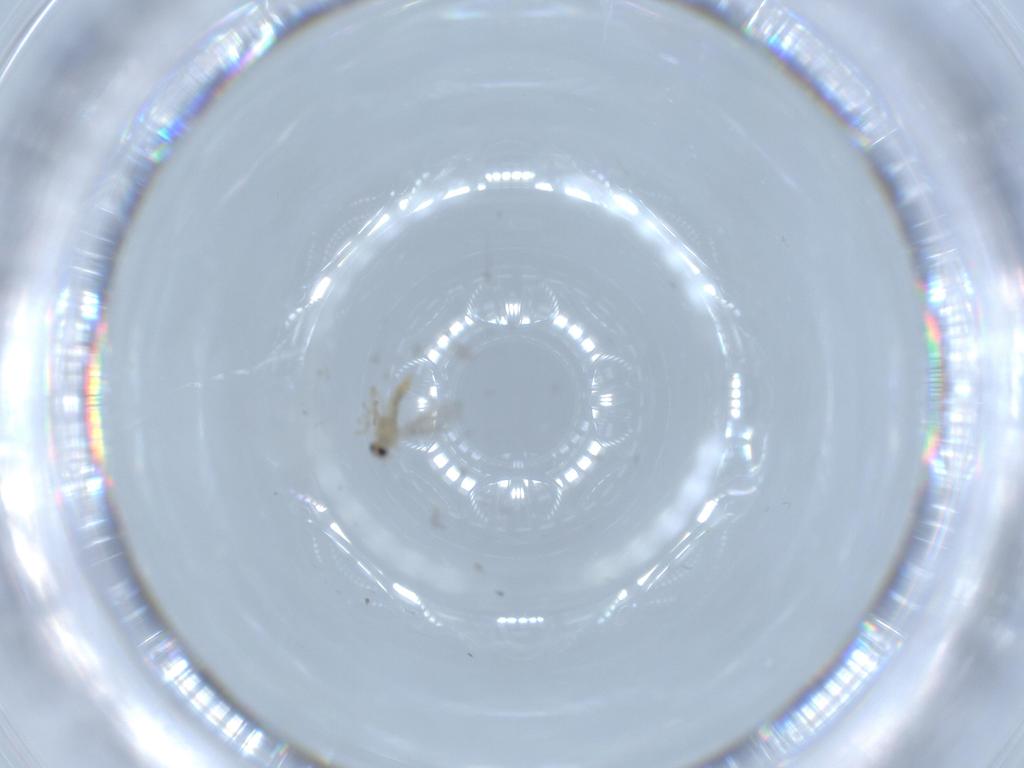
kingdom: Animalia
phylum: Arthropoda
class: Insecta
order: Diptera
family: Cecidomyiidae
